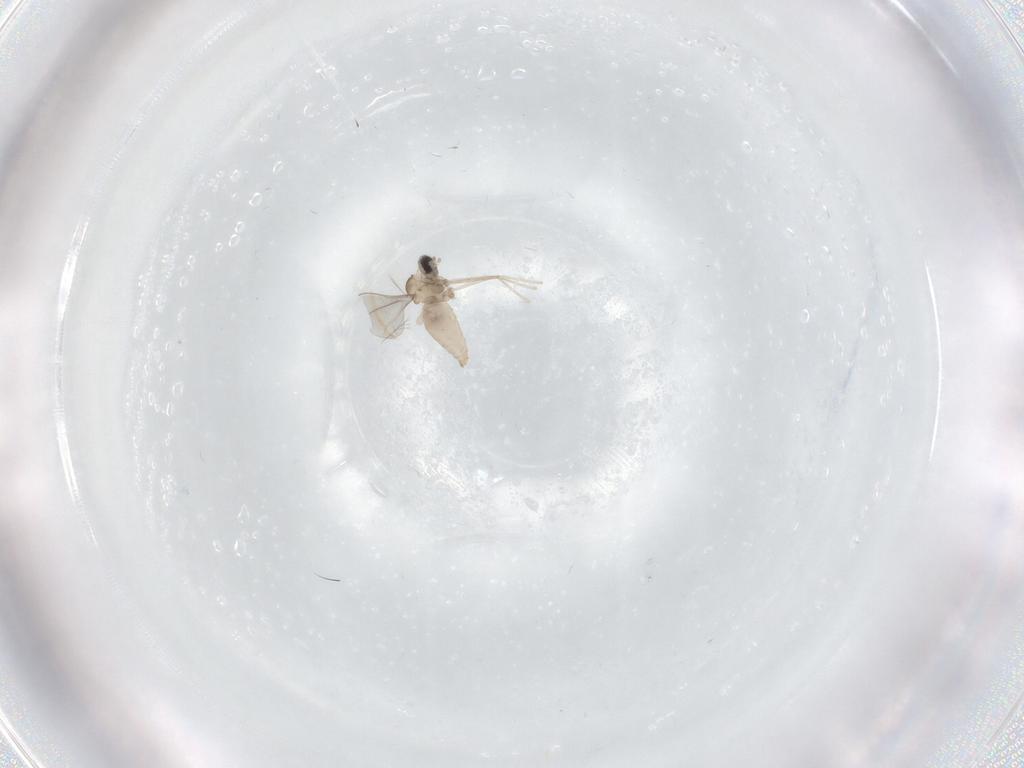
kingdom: Animalia
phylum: Arthropoda
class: Insecta
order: Diptera
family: Cecidomyiidae
